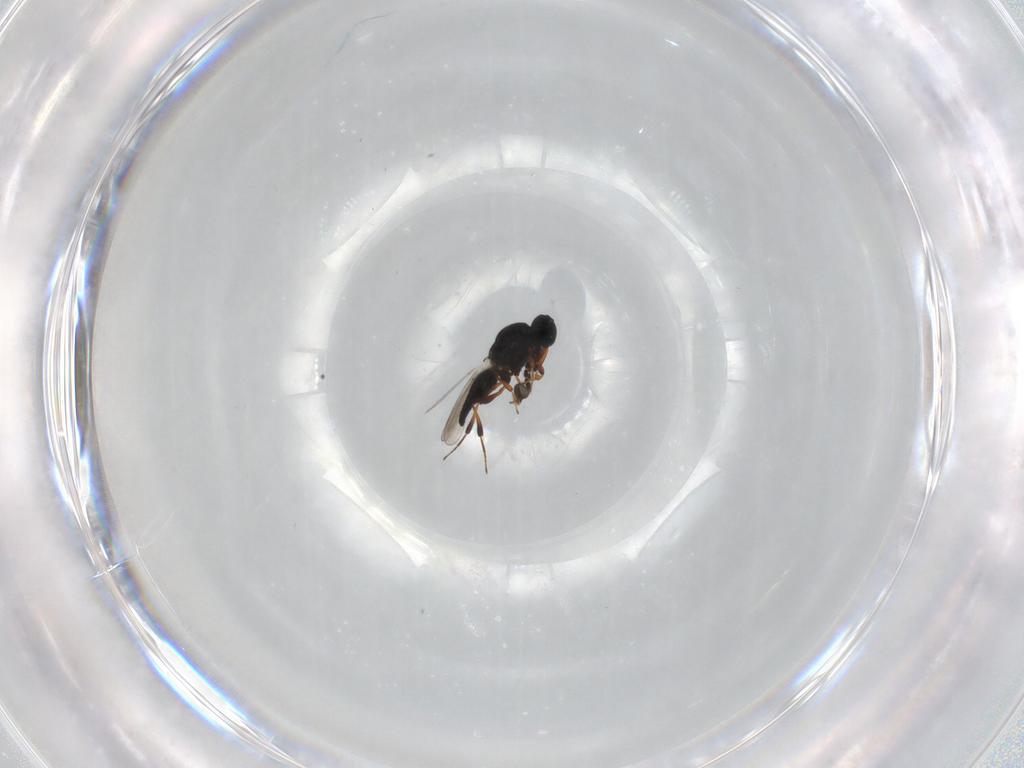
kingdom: Animalia
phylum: Arthropoda
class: Insecta
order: Hymenoptera
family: Platygastridae
